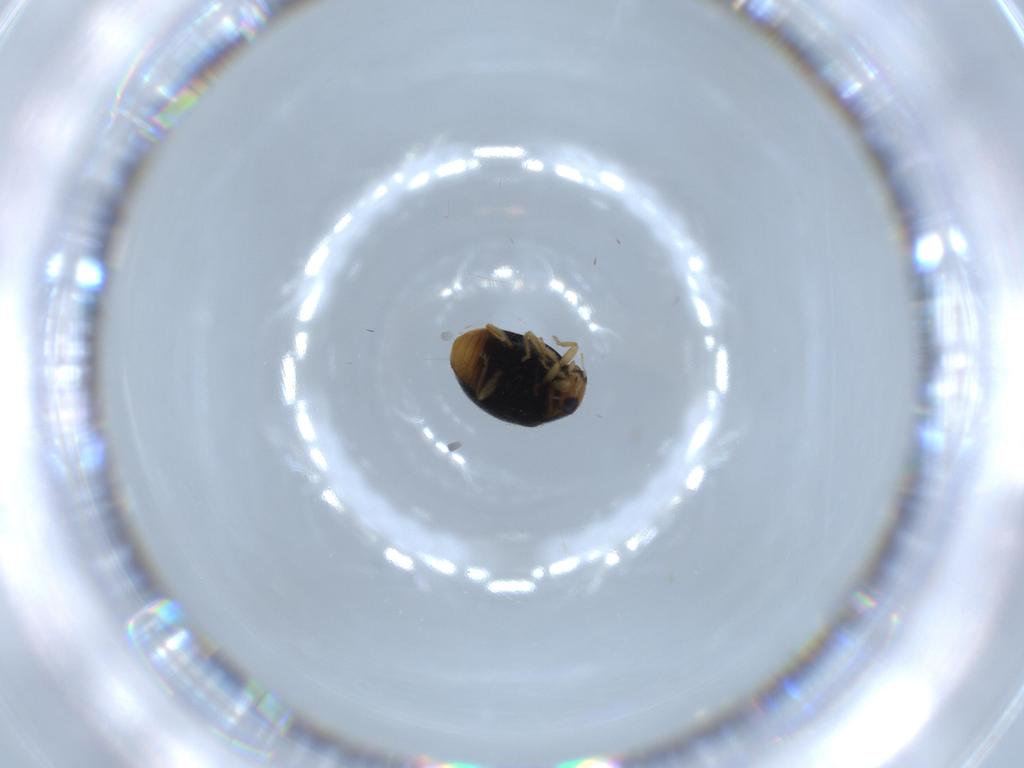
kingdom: Animalia
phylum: Arthropoda
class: Insecta
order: Coleoptera
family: Coccinellidae
